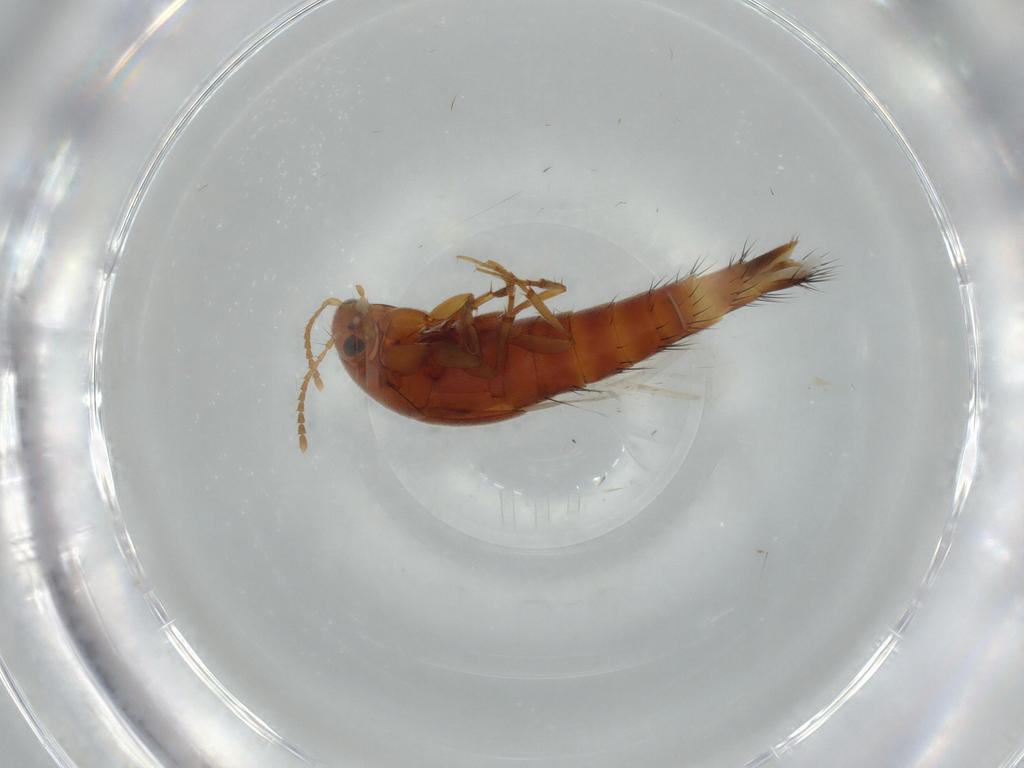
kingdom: Animalia
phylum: Arthropoda
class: Insecta
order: Coleoptera
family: Staphylinidae
